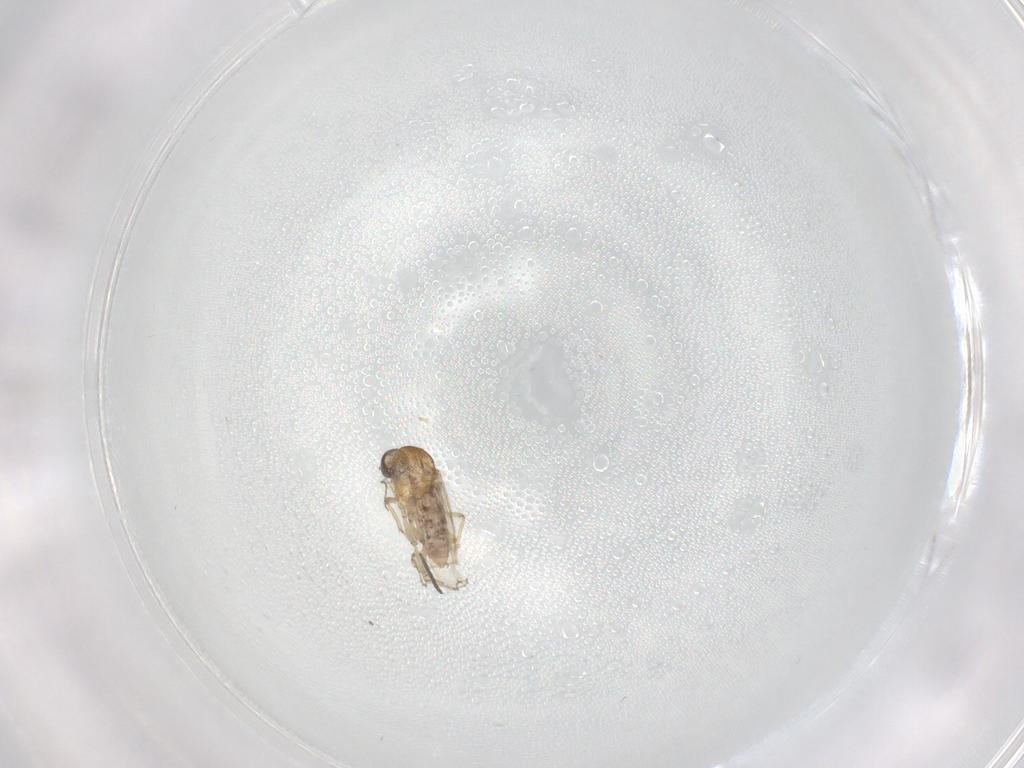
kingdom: Animalia
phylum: Arthropoda
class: Insecta
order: Diptera
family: Ceratopogonidae
